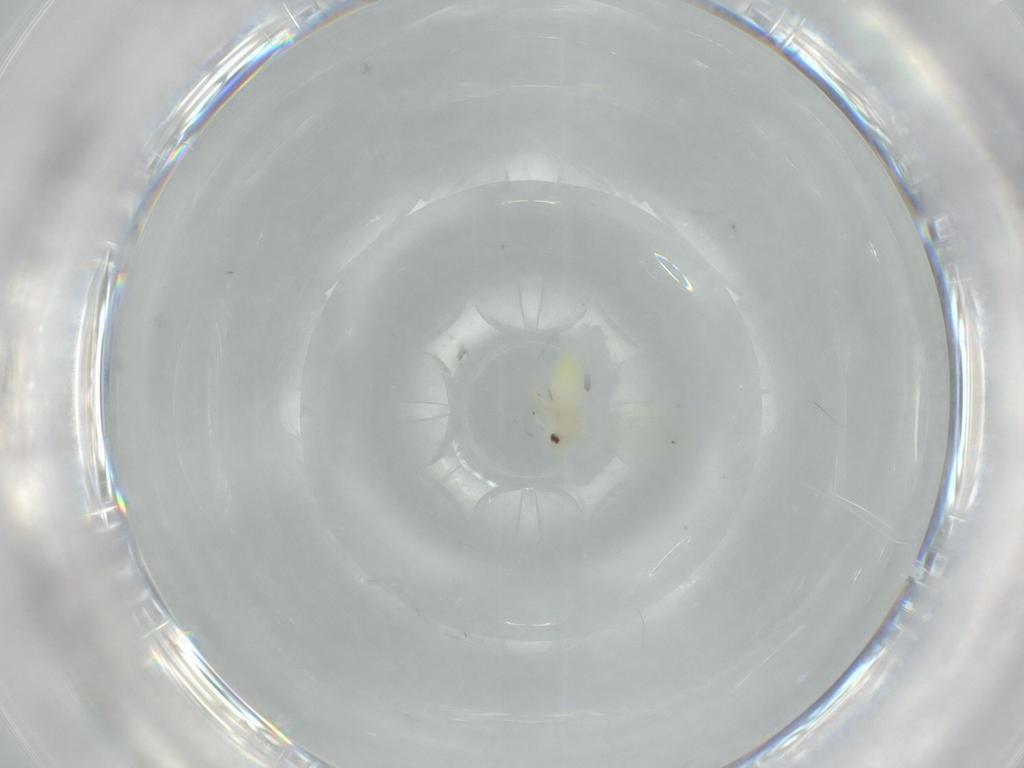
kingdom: Animalia
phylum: Arthropoda
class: Insecta
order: Hemiptera
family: Aleyrodidae
